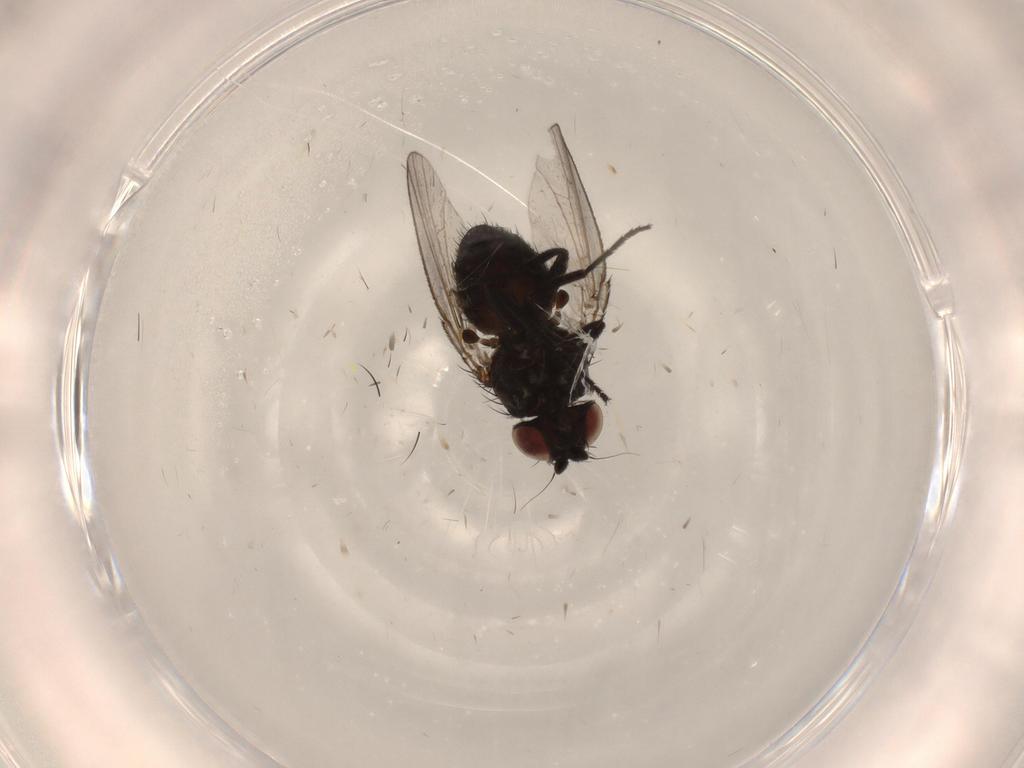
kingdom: Animalia
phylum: Arthropoda
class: Insecta
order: Diptera
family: Milichiidae
